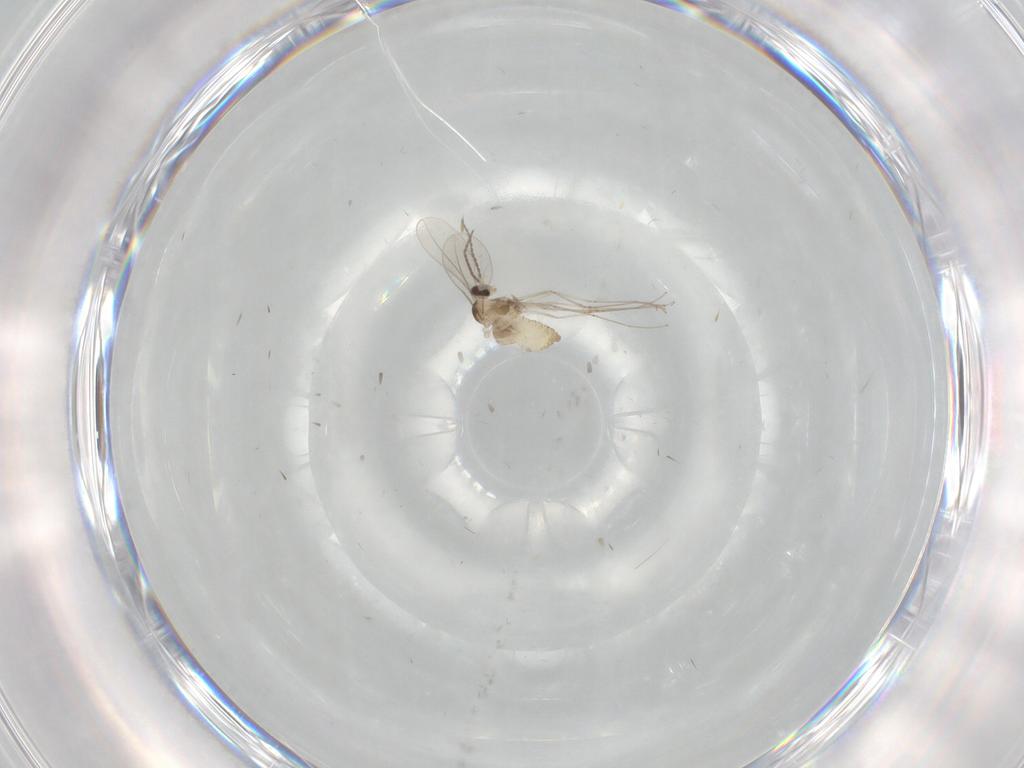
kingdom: Animalia
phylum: Arthropoda
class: Insecta
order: Diptera
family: Cecidomyiidae
